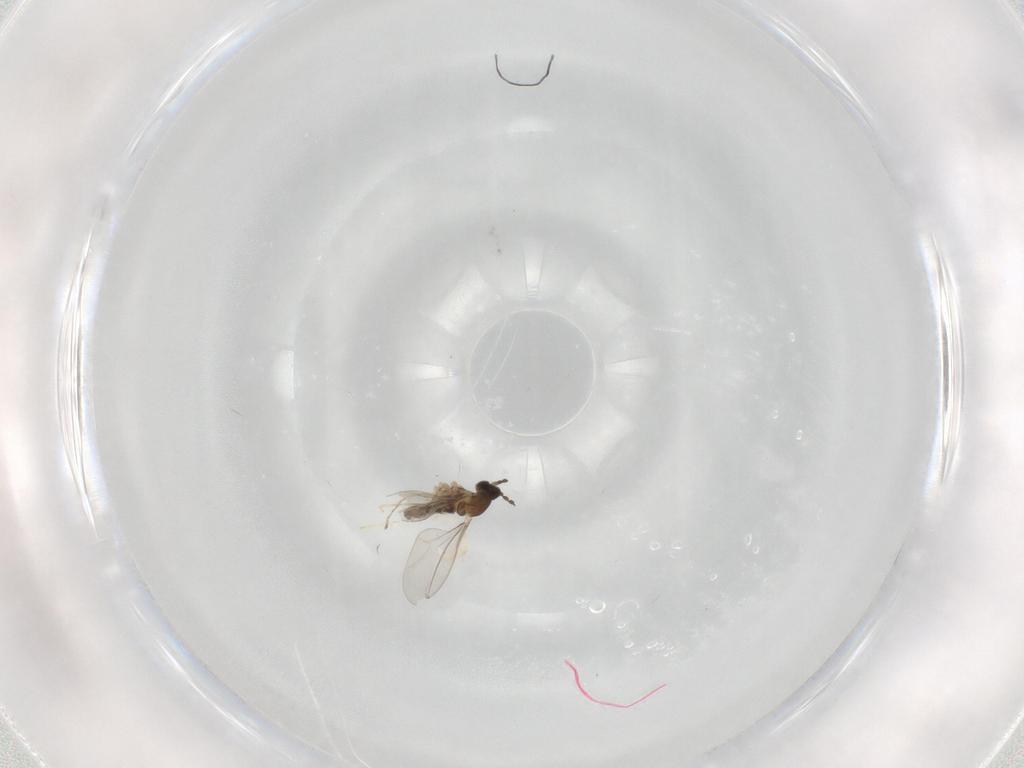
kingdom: Animalia
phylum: Arthropoda
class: Insecta
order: Diptera
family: Cecidomyiidae
